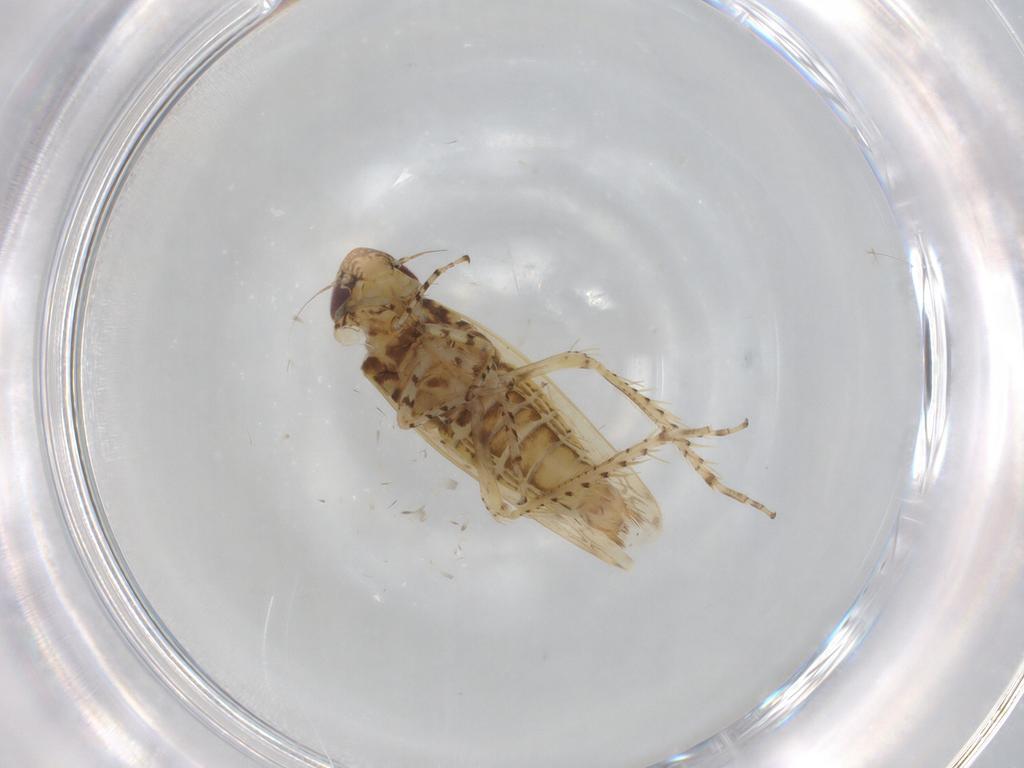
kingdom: Animalia
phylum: Arthropoda
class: Insecta
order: Hemiptera
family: Cicadellidae
